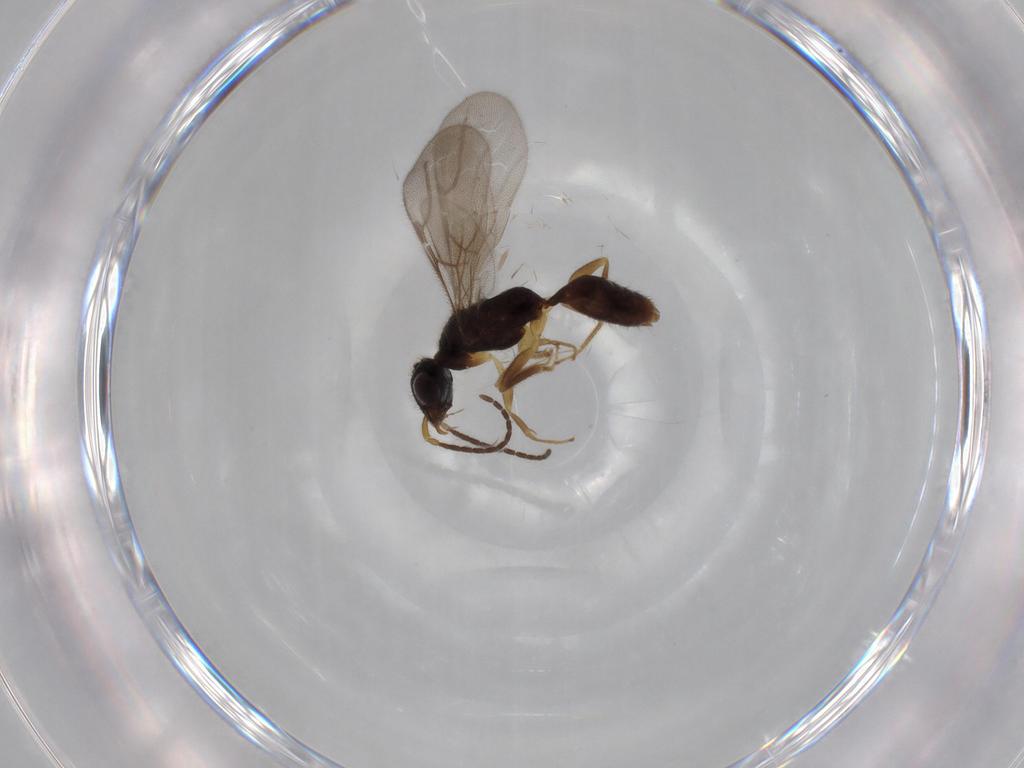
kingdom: Animalia
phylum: Arthropoda
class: Insecta
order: Hymenoptera
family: Bethylidae
